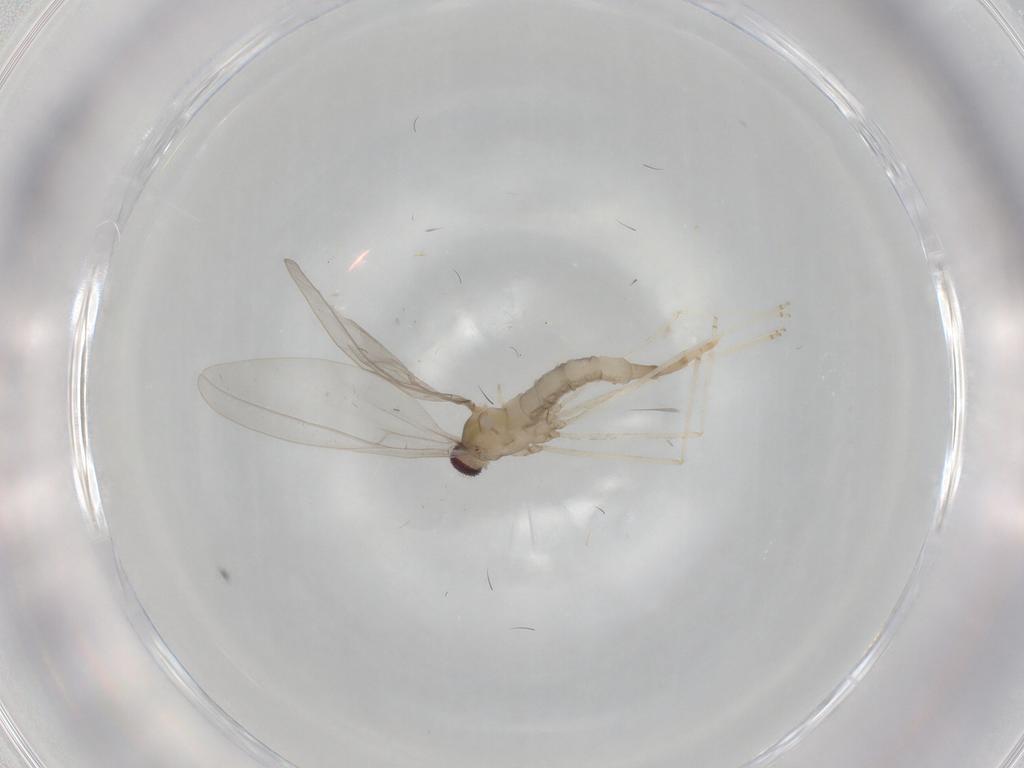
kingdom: Animalia
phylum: Arthropoda
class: Insecta
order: Diptera
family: Cecidomyiidae
